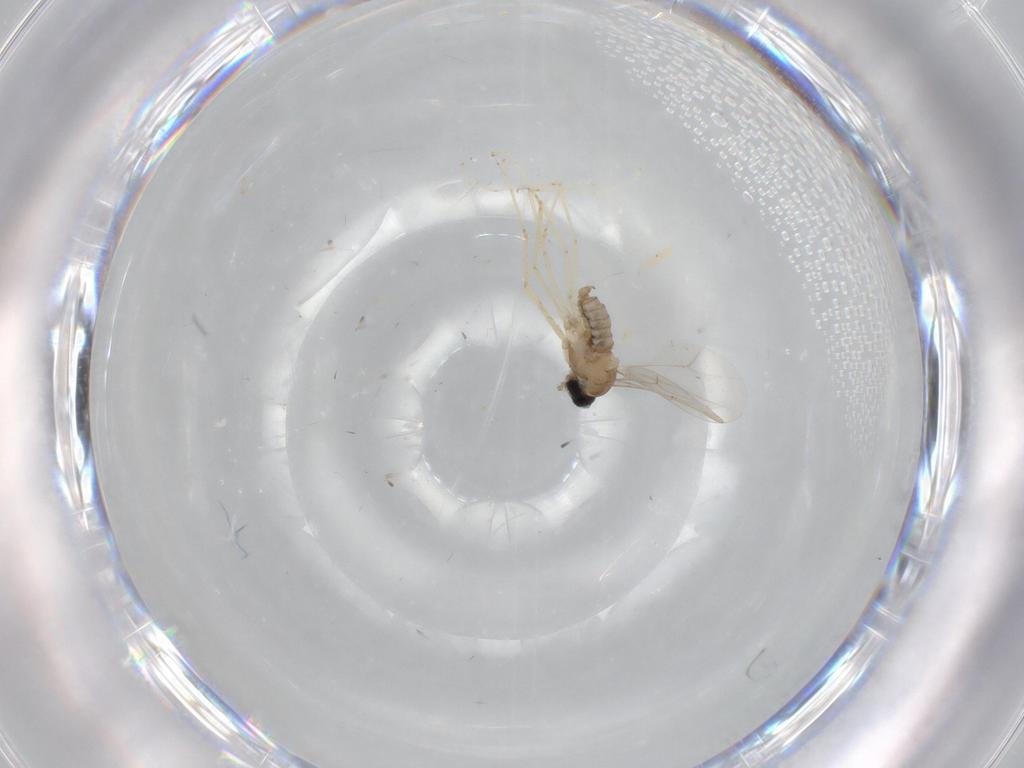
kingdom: Animalia
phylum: Arthropoda
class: Insecta
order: Diptera
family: Cecidomyiidae
